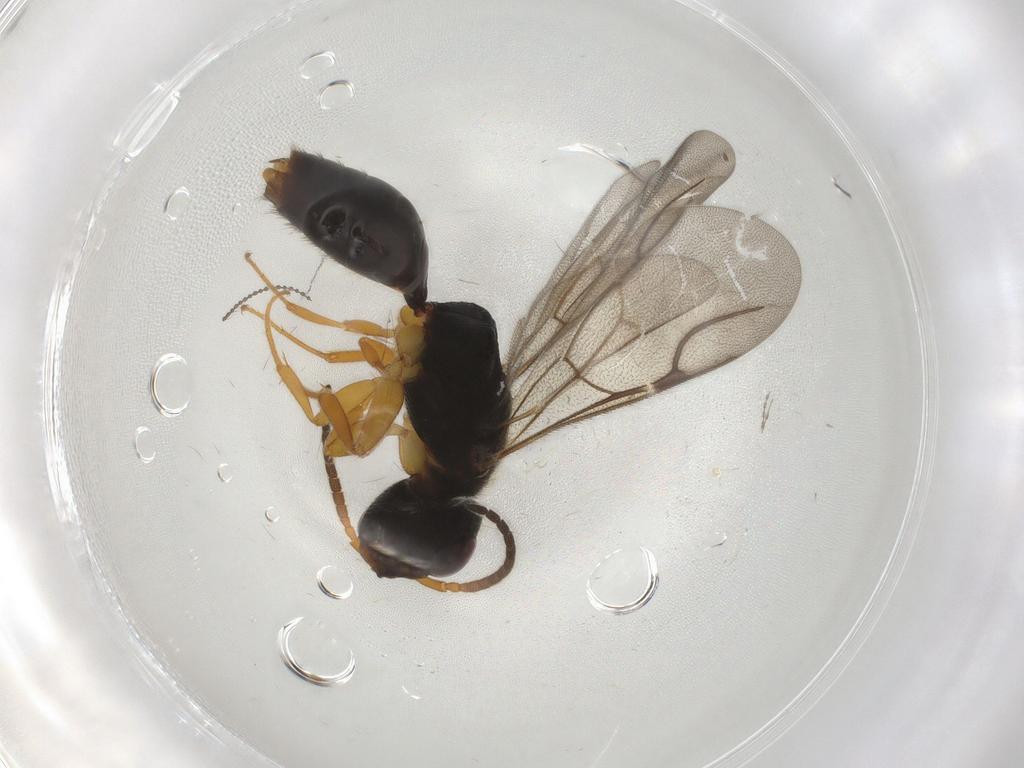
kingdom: Animalia
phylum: Arthropoda
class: Insecta
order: Hymenoptera
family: Bethylidae
